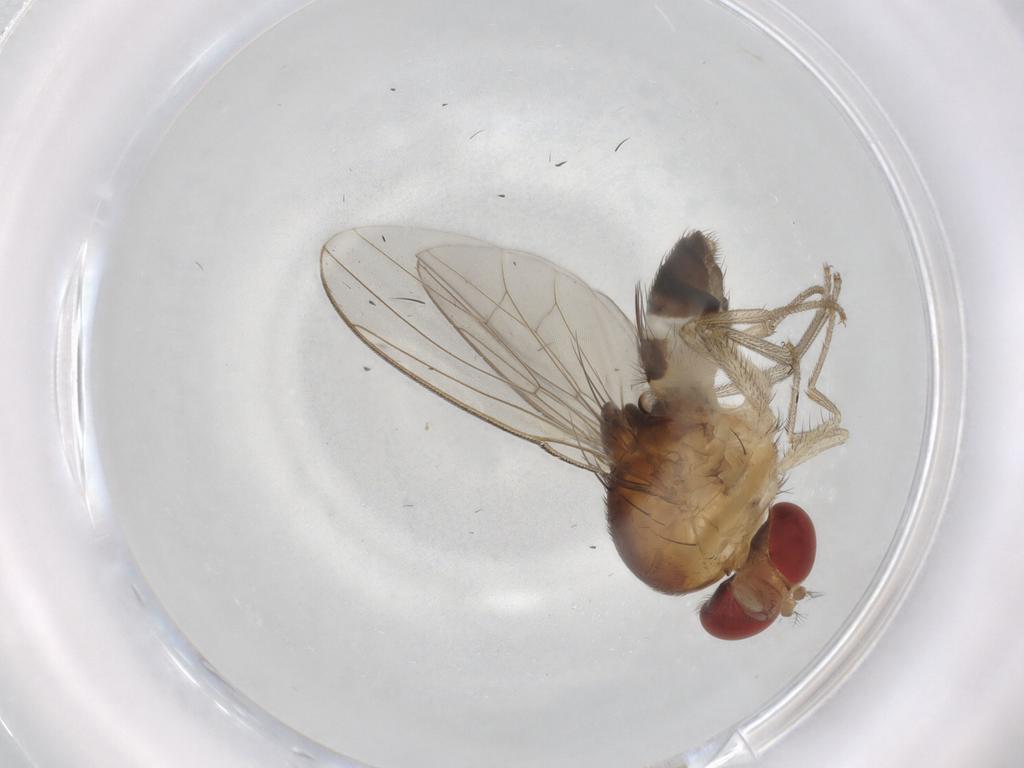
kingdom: Animalia
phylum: Arthropoda
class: Insecta
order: Diptera
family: Drosophilidae
